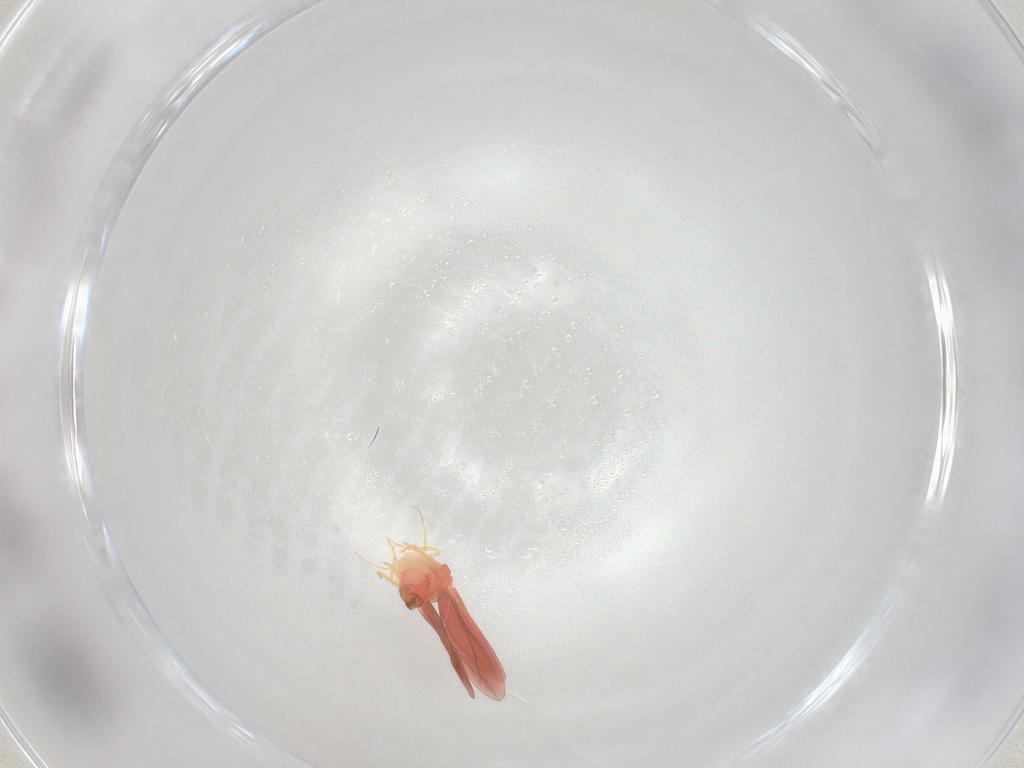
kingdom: Animalia
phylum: Arthropoda
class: Insecta
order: Hemiptera
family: Aleyrodidae
